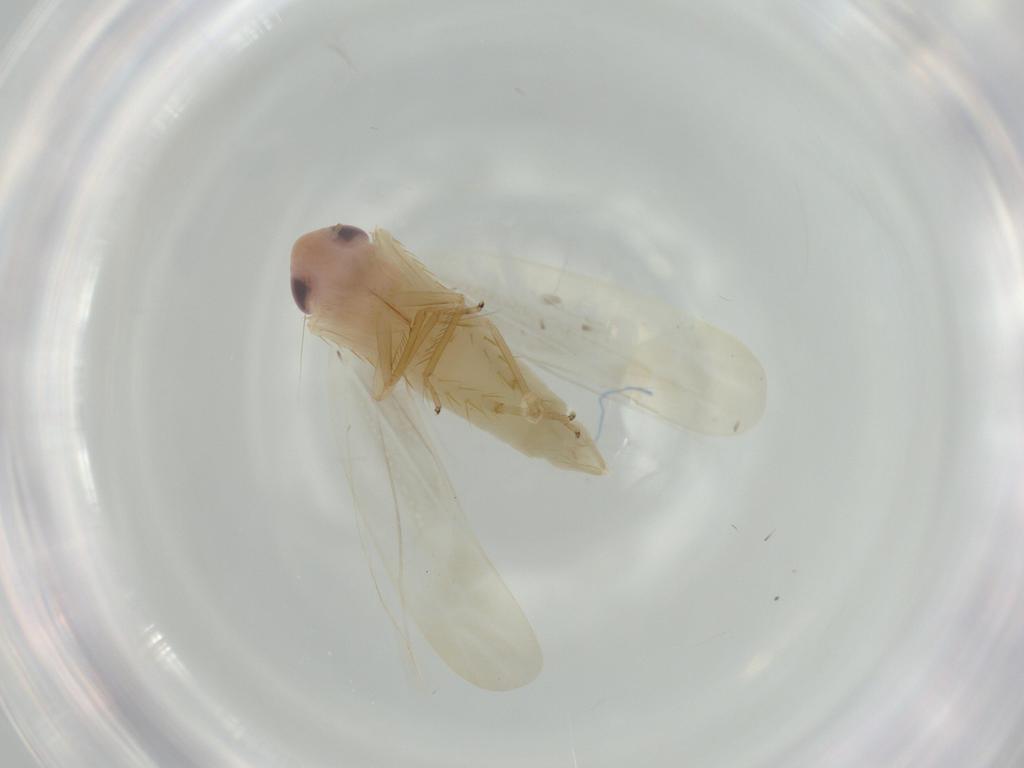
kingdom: Animalia
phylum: Arthropoda
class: Insecta
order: Hemiptera
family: Cicadellidae
